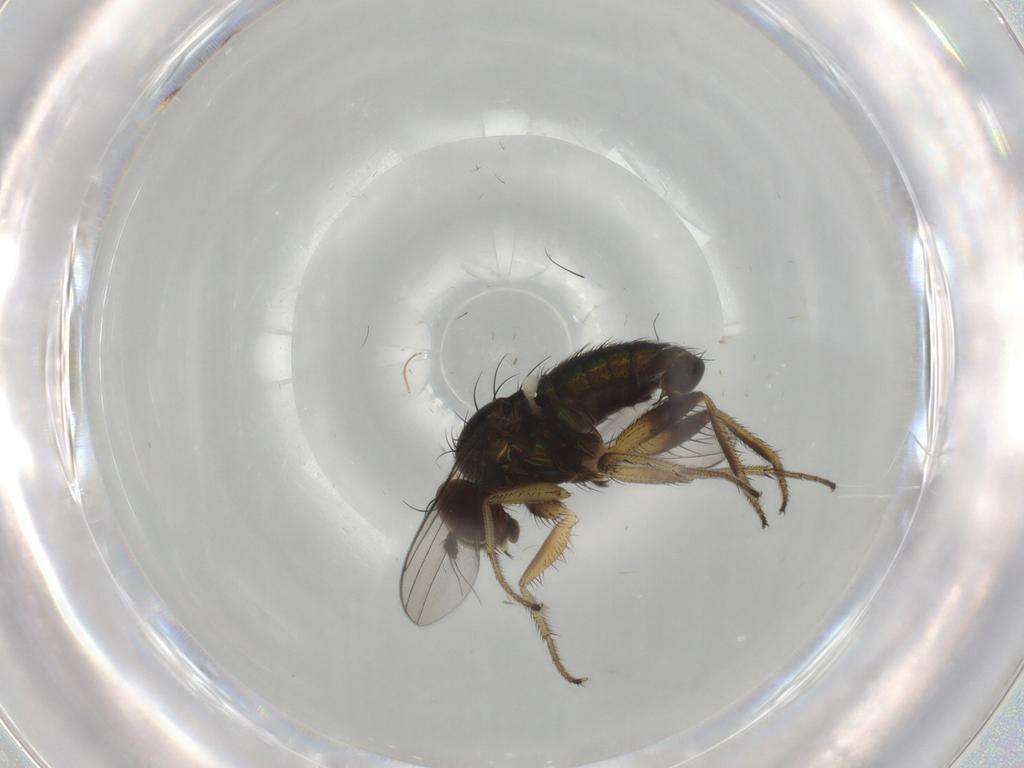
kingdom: Animalia
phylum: Arthropoda
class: Insecta
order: Diptera
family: Dolichopodidae
